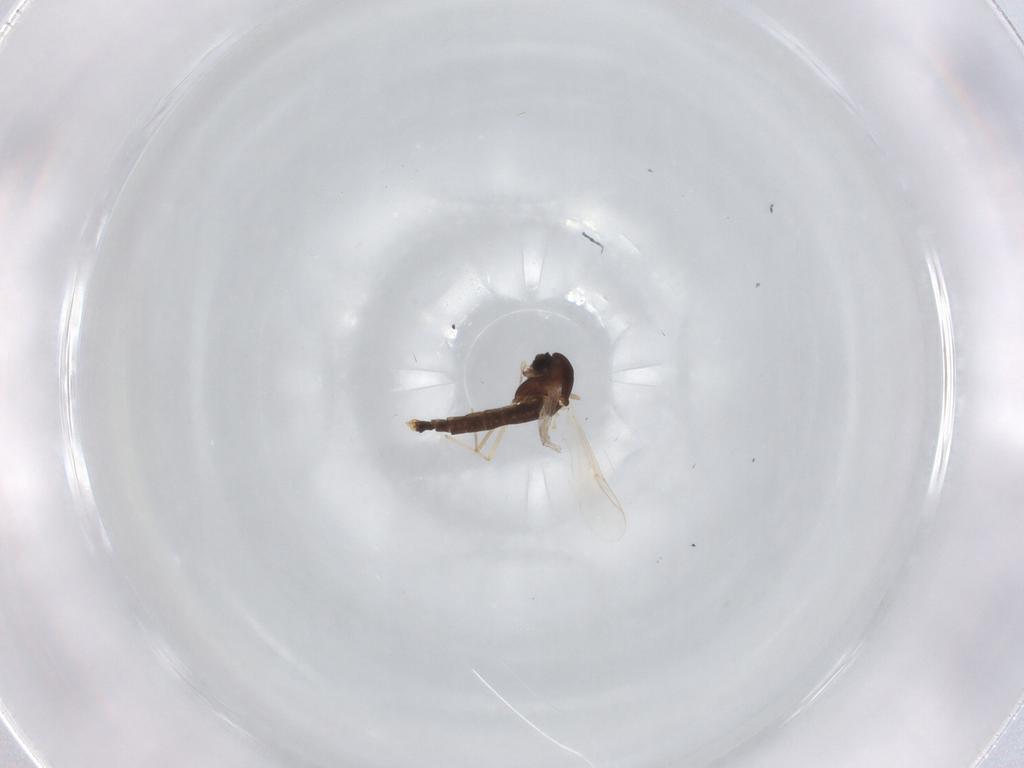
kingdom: Animalia
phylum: Arthropoda
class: Insecta
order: Diptera
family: Chironomidae
